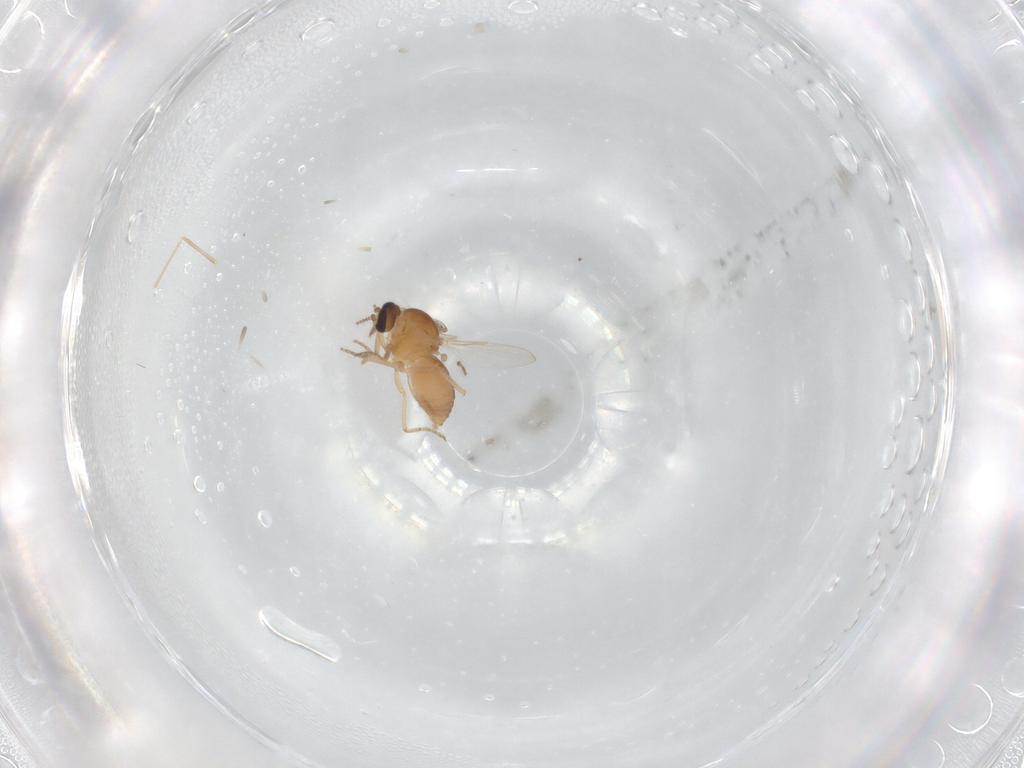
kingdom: Animalia
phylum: Arthropoda
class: Insecta
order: Diptera
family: Ceratopogonidae
